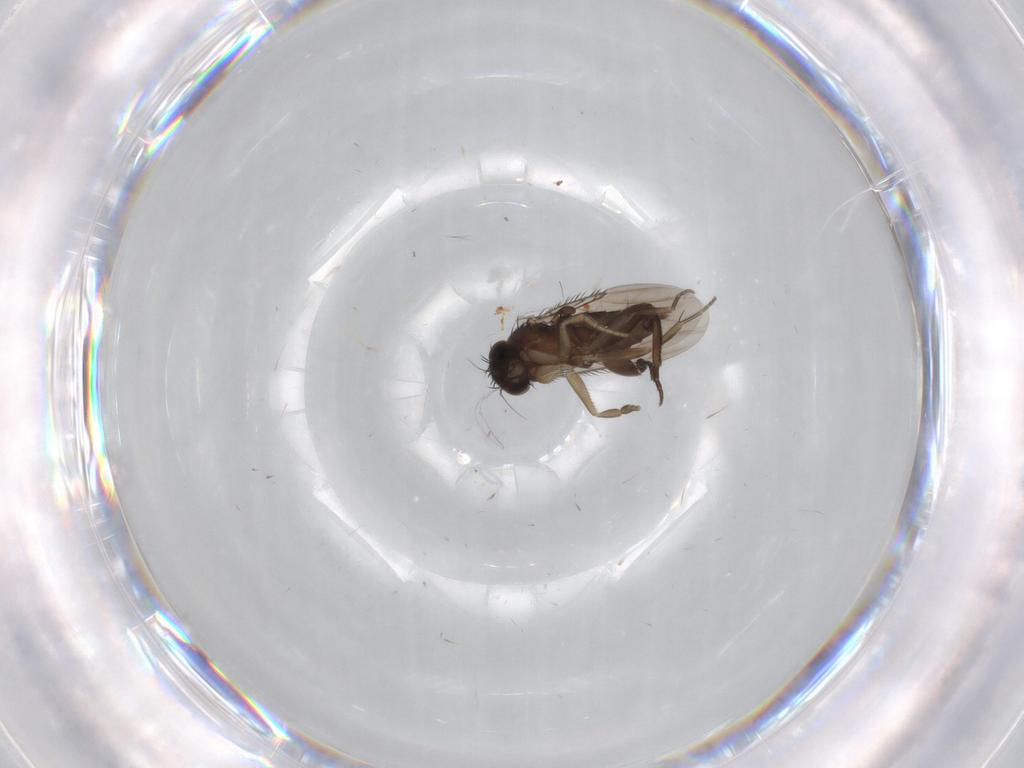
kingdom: Animalia
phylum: Arthropoda
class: Insecta
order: Diptera
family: Phoridae
